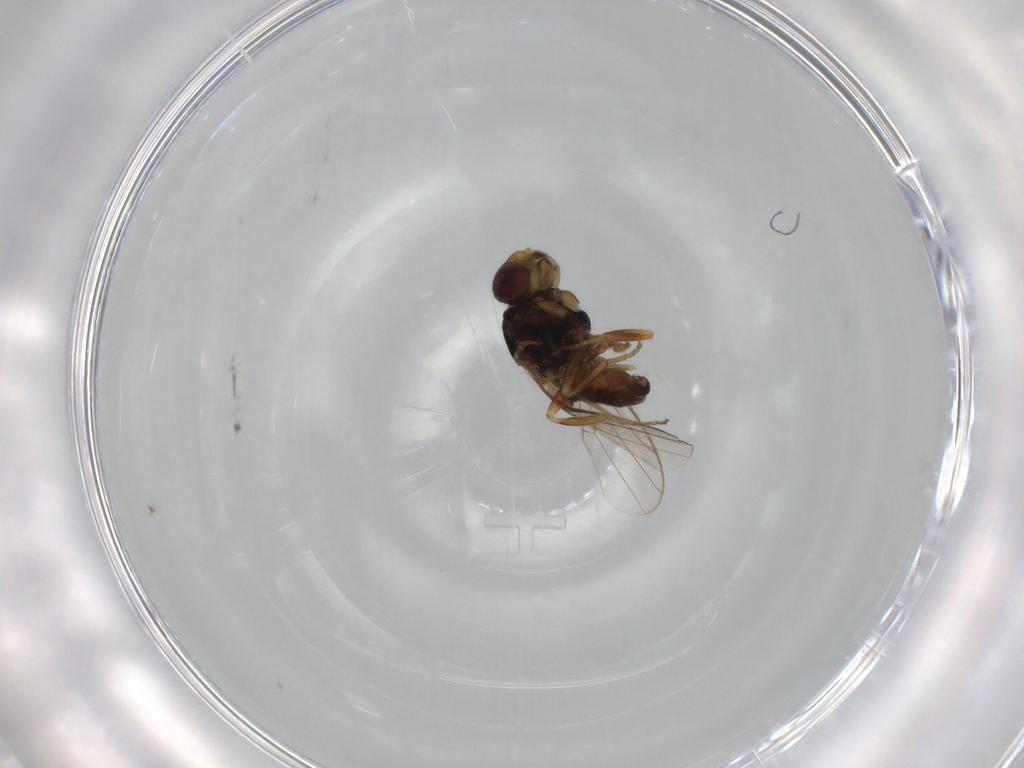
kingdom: Animalia
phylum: Arthropoda
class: Insecta
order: Diptera
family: Chloropidae
